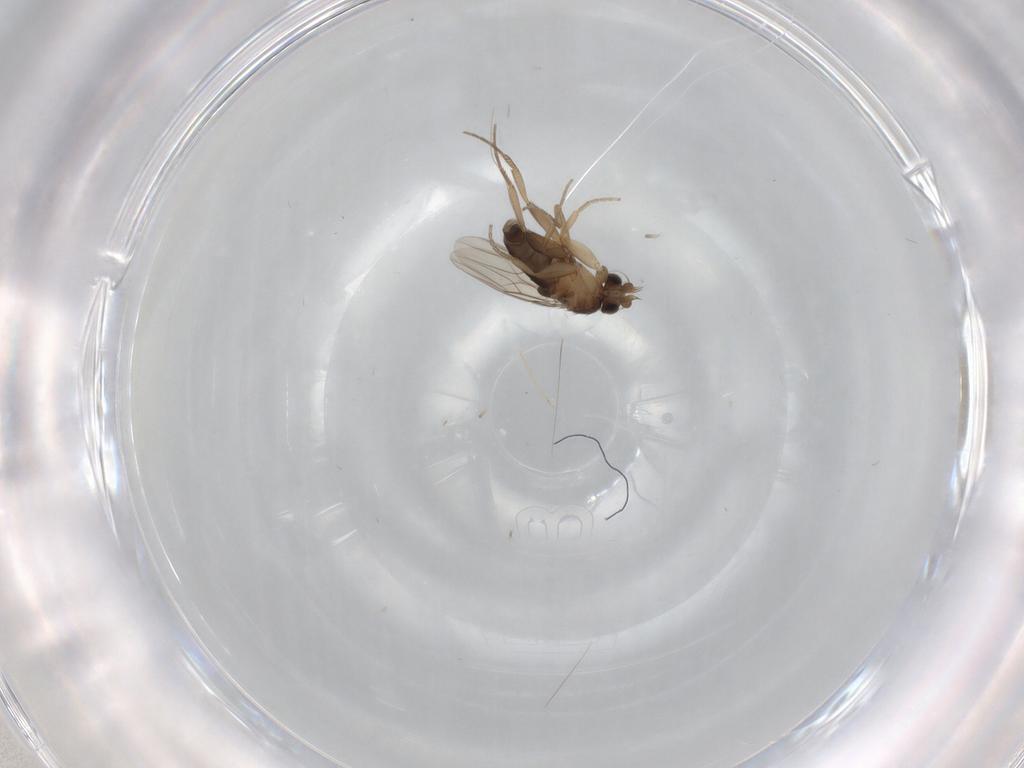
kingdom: Animalia
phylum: Arthropoda
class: Insecta
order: Diptera
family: Phoridae
